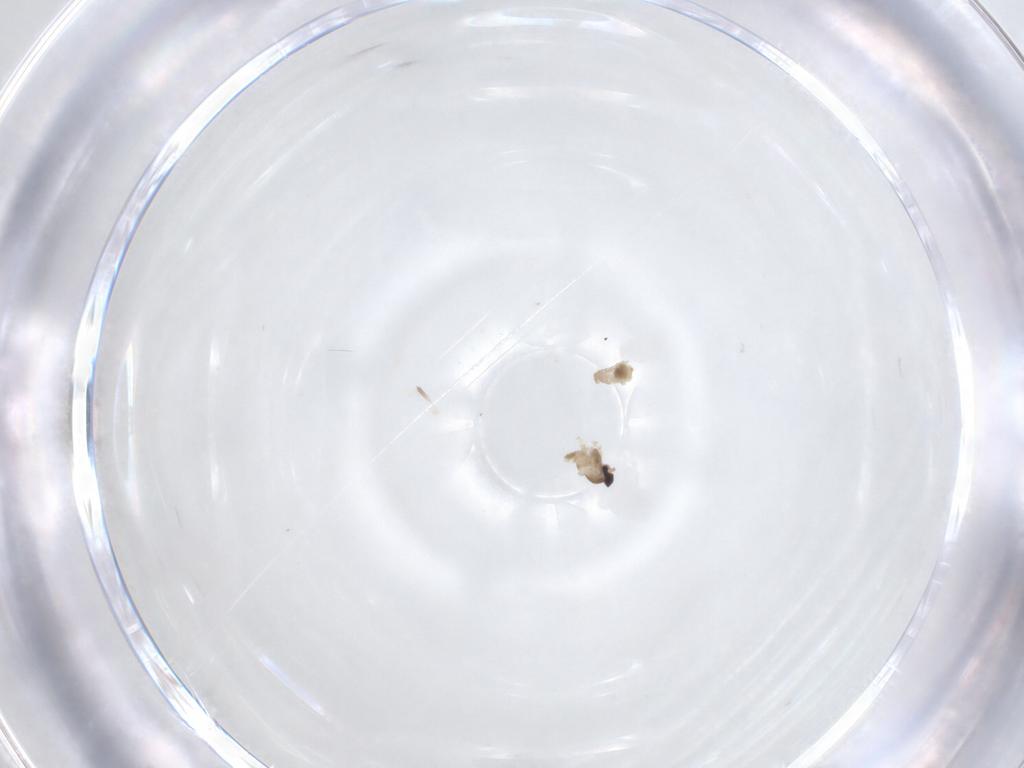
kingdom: Animalia
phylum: Arthropoda
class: Insecta
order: Diptera
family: Cecidomyiidae
